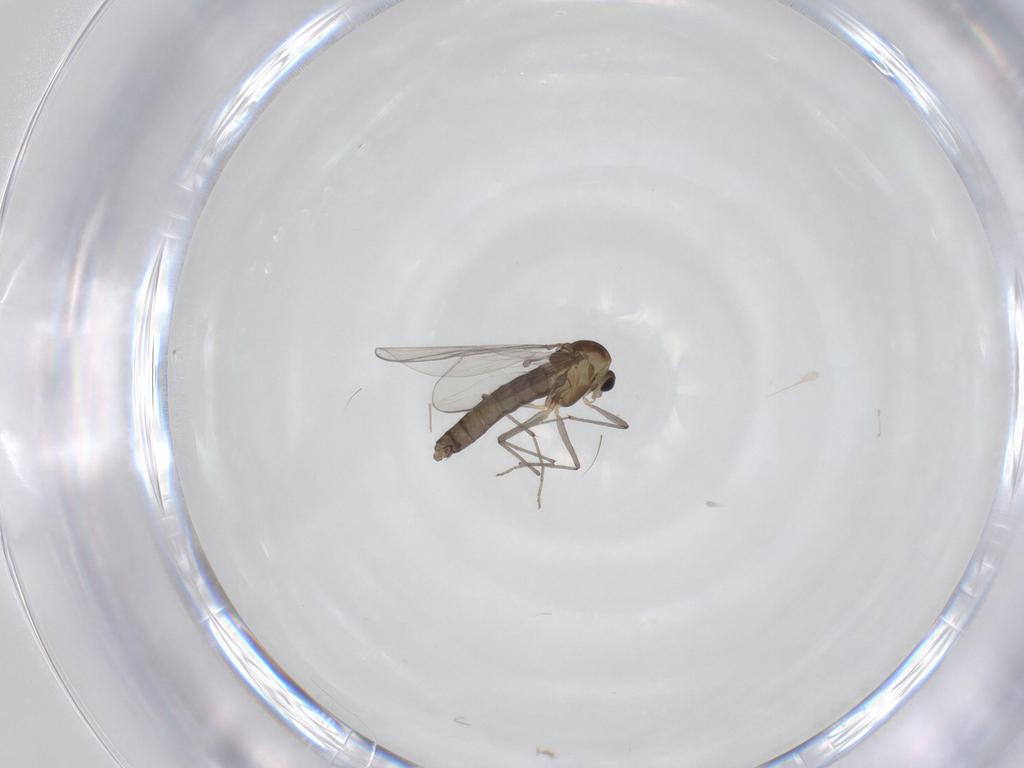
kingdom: Animalia
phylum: Arthropoda
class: Insecta
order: Diptera
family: Chironomidae
